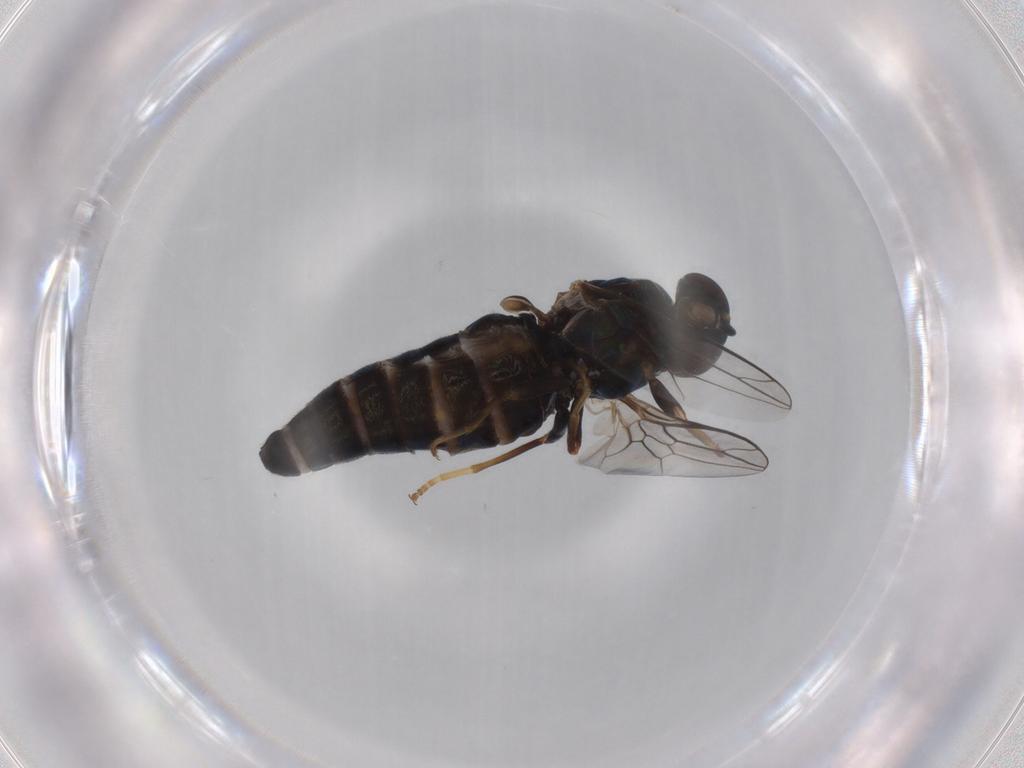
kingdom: Animalia
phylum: Arthropoda
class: Insecta
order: Diptera
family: Scenopinidae
